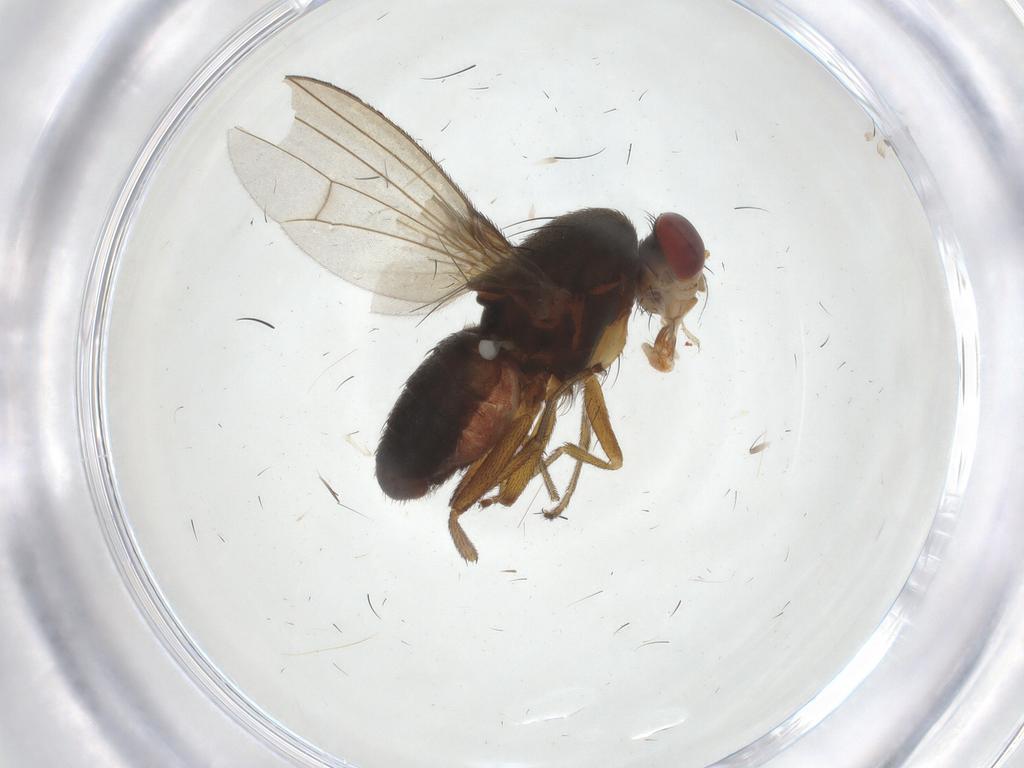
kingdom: Animalia
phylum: Arthropoda
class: Insecta
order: Diptera
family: Diastatidae
